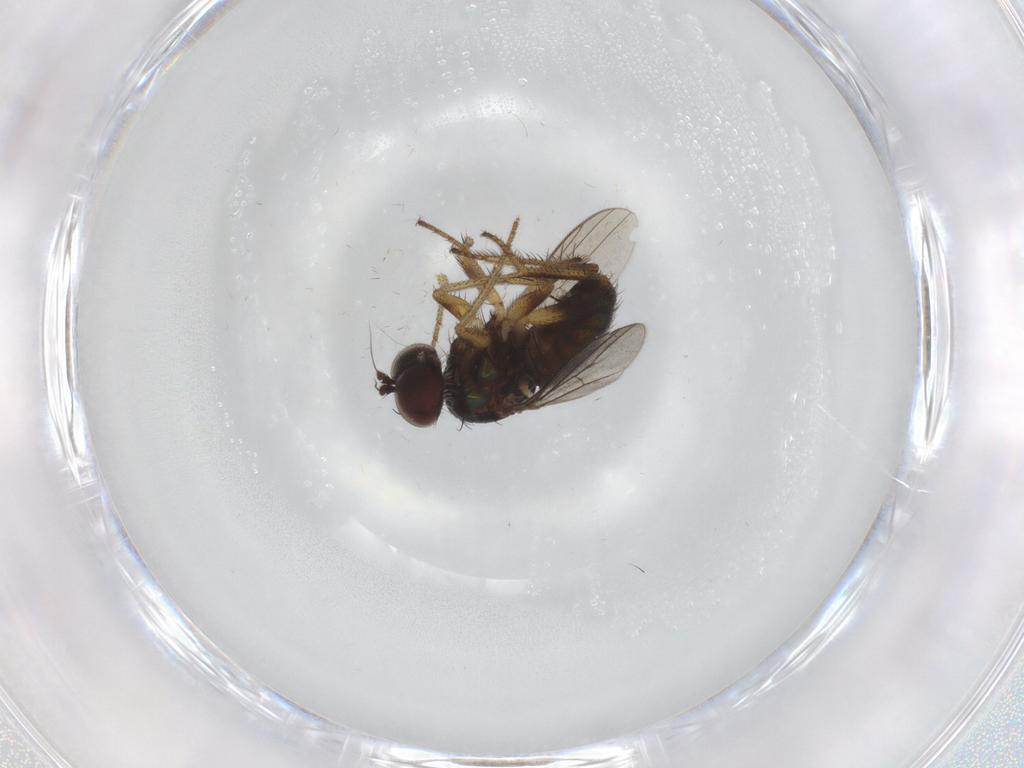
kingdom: Animalia
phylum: Arthropoda
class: Insecta
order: Diptera
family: Dolichopodidae
